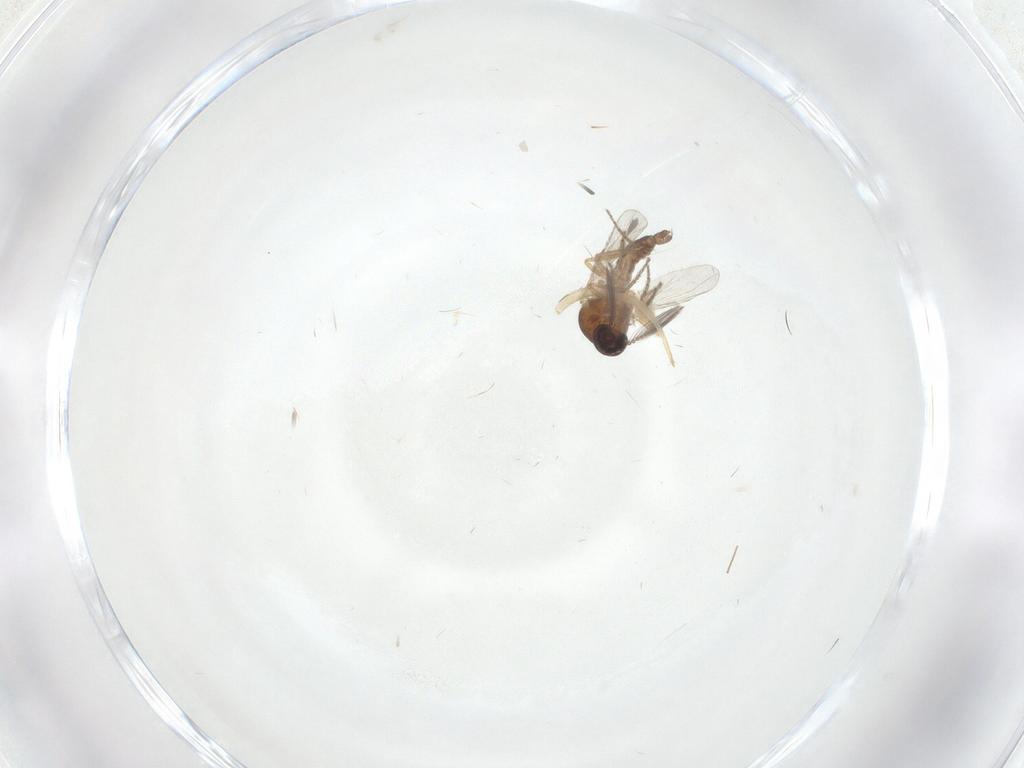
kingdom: Animalia
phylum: Arthropoda
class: Insecta
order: Diptera
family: Ceratopogonidae
